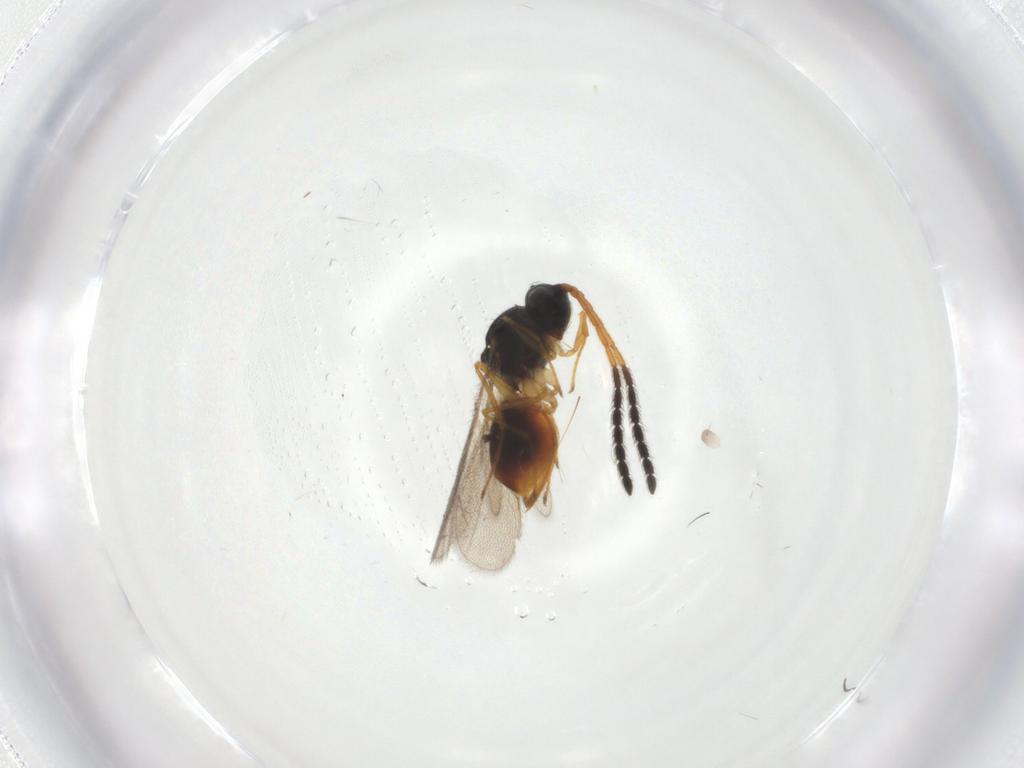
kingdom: Animalia
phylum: Arthropoda
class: Insecta
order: Hymenoptera
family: Figitidae
